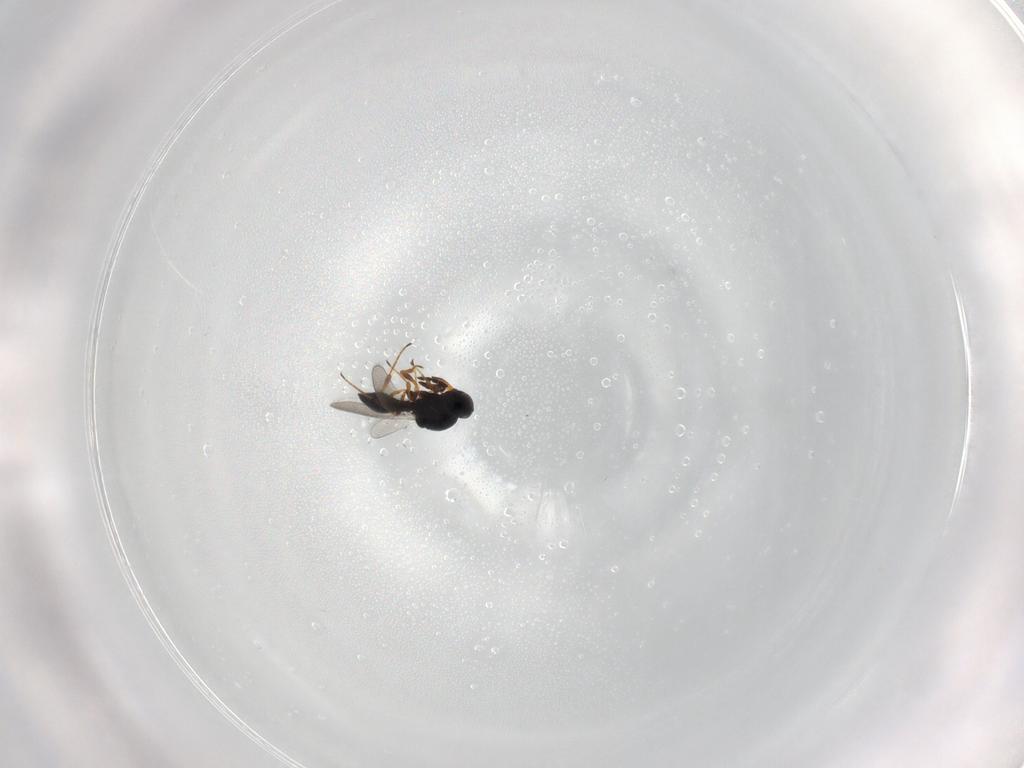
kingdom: Animalia
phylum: Arthropoda
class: Insecta
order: Hymenoptera
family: Platygastridae
